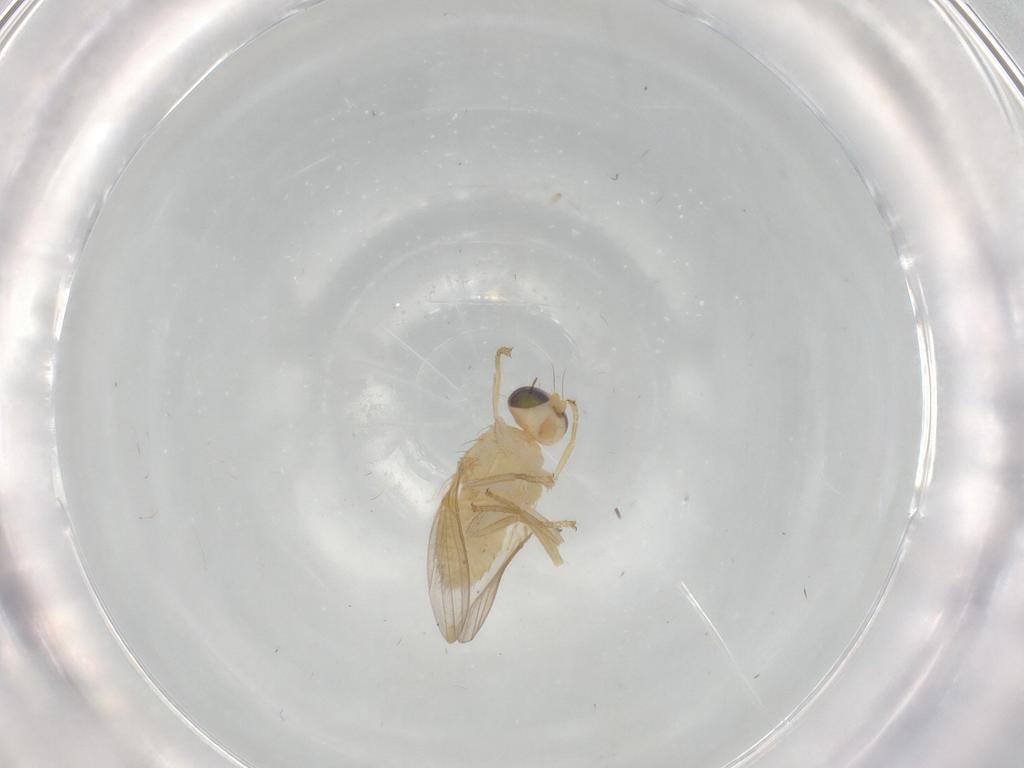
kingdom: Animalia
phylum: Arthropoda
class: Insecta
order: Diptera
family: Chyromyidae
